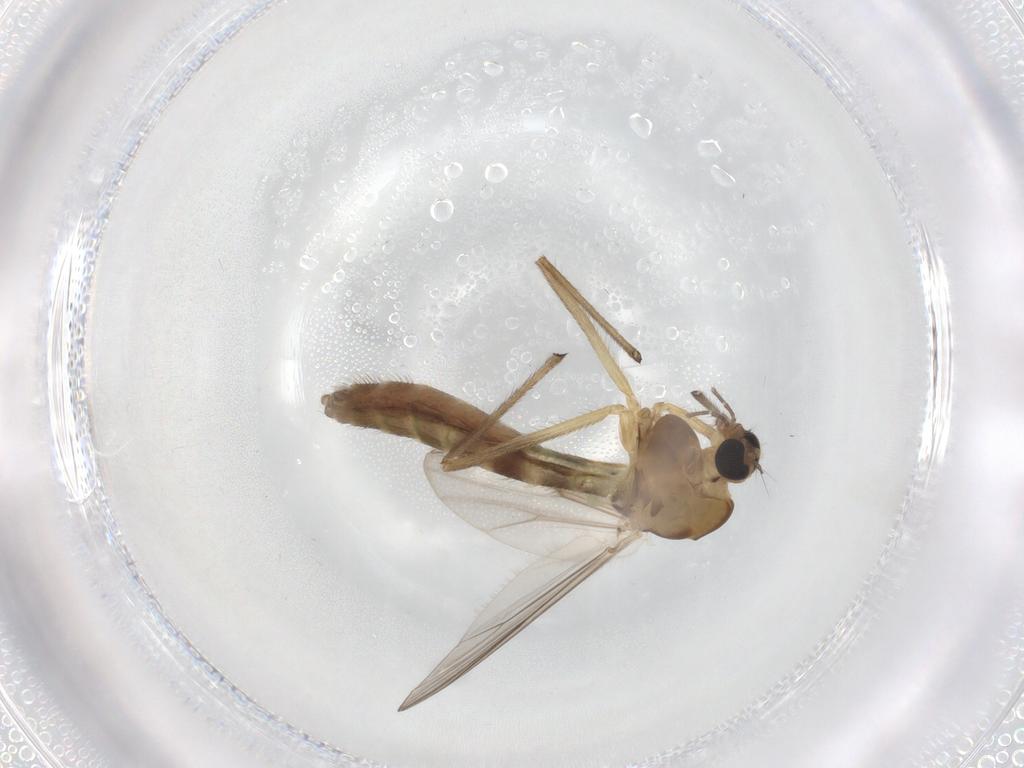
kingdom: Animalia
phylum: Arthropoda
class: Insecta
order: Diptera
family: Chironomidae
